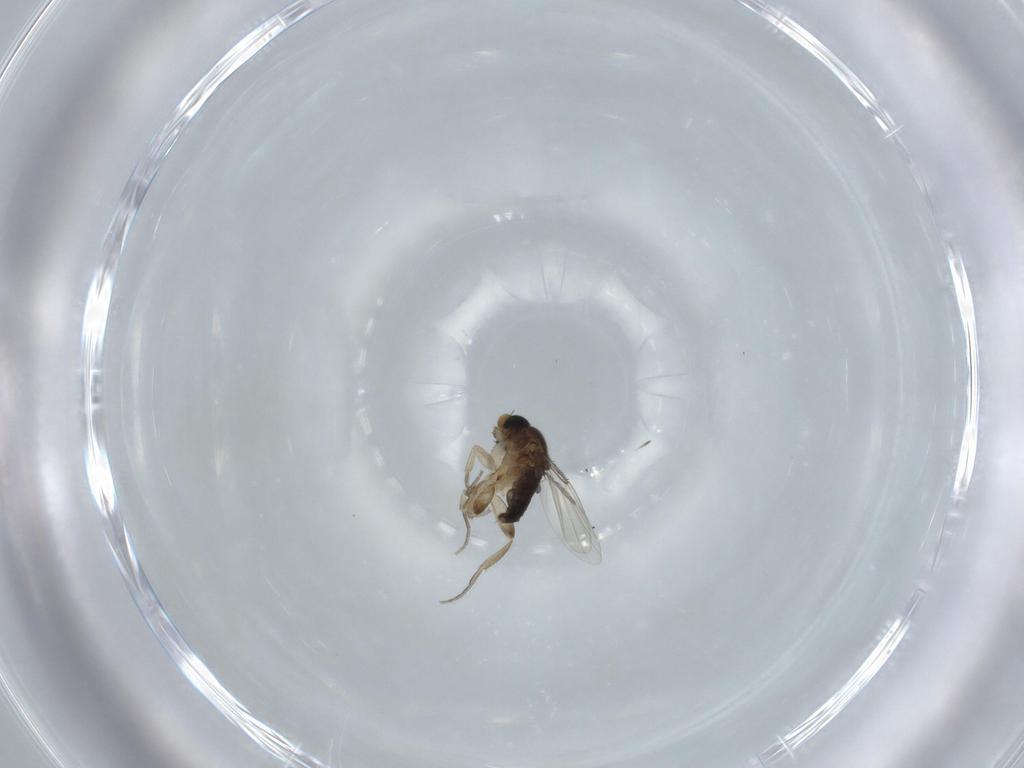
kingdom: Animalia
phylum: Arthropoda
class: Insecta
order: Diptera
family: Phoridae
